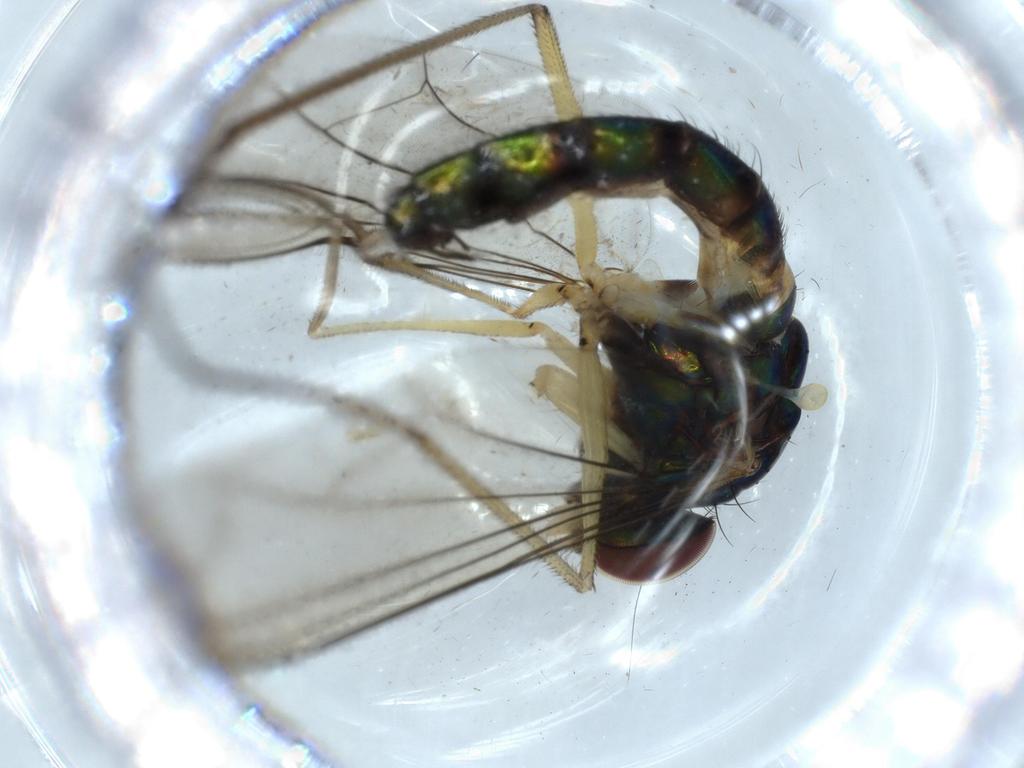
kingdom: Animalia
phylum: Arthropoda
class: Insecta
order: Diptera
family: Dolichopodidae
